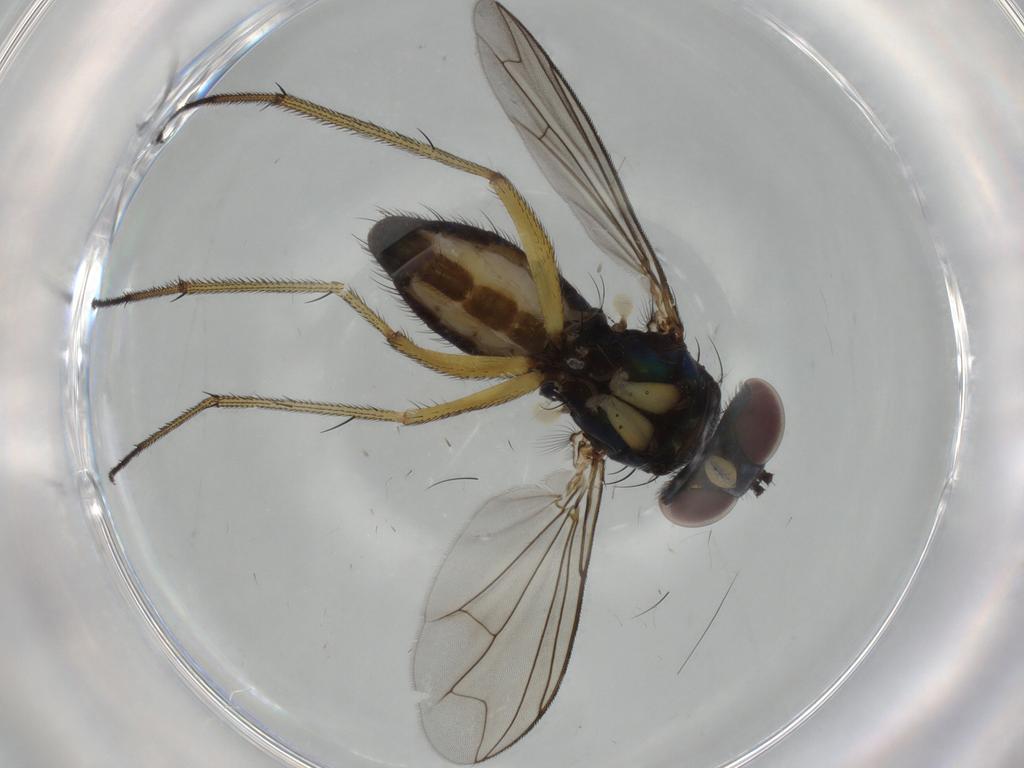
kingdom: Animalia
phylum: Arthropoda
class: Insecta
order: Diptera
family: Dolichopodidae
